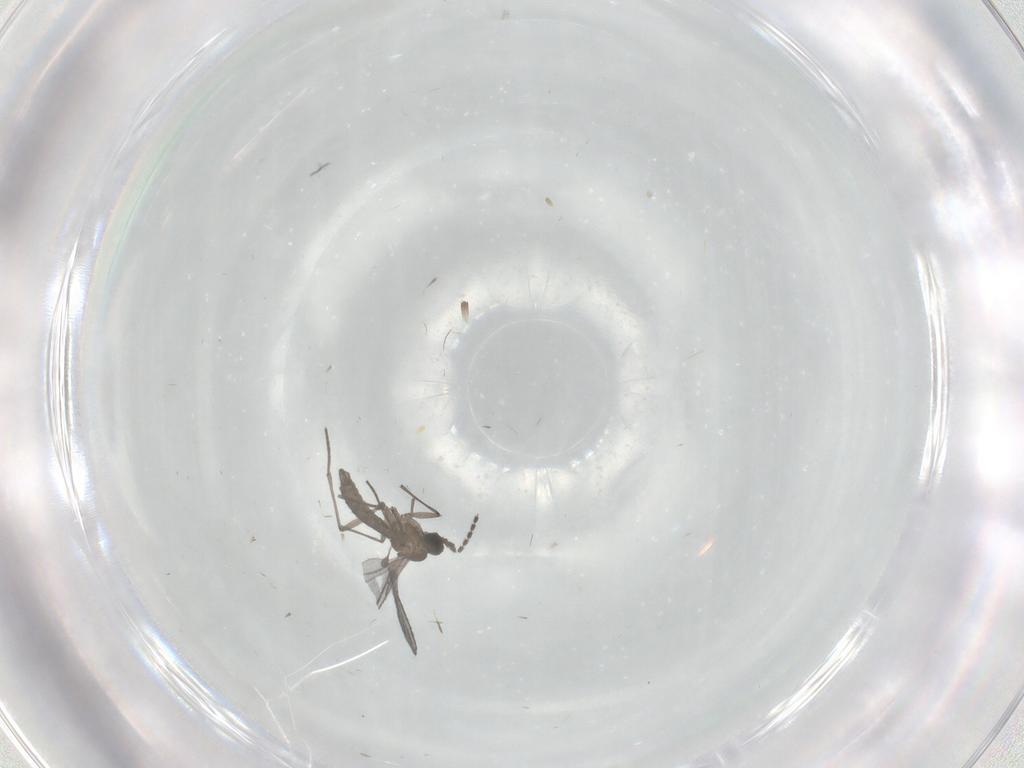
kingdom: Animalia
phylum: Arthropoda
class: Insecta
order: Diptera
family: Cecidomyiidae
